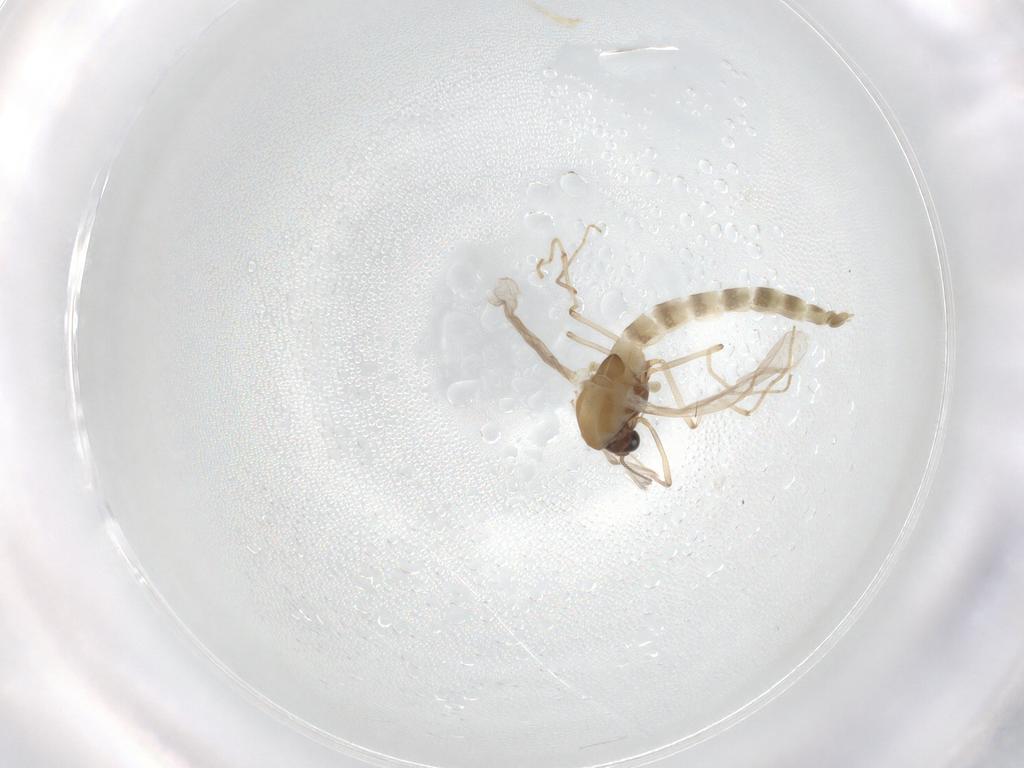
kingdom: Animalia
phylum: Arthropoda
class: Insecta
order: Diptera
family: Chironomidae
